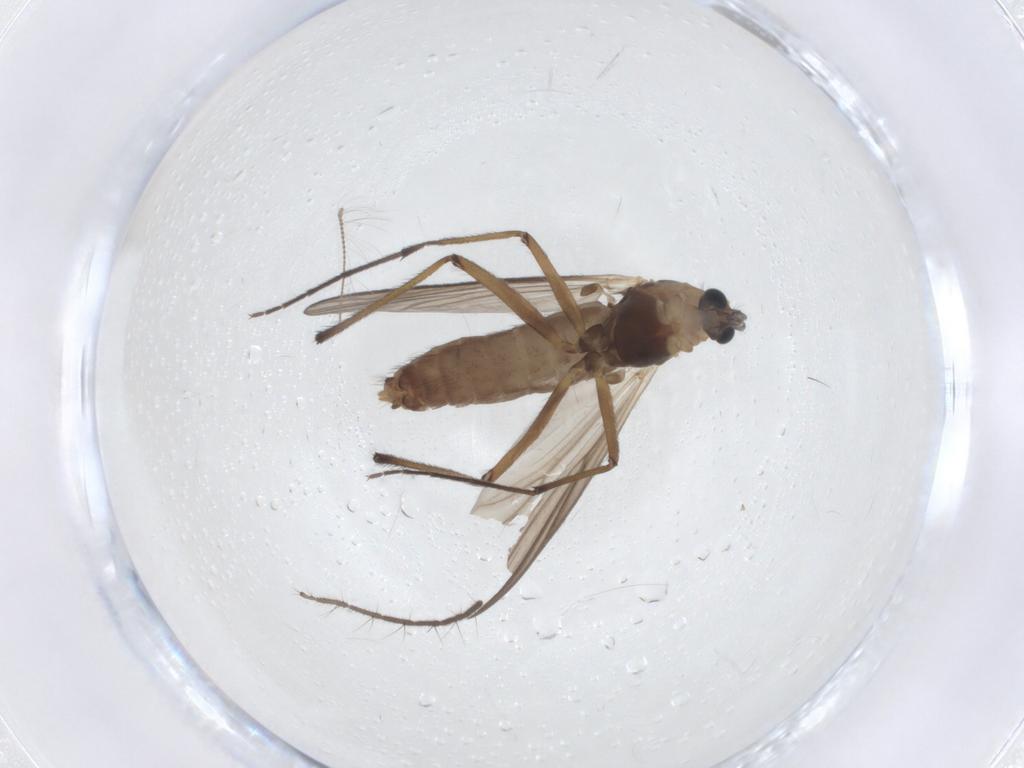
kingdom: Animalia
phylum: Arthropoda
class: Insecta
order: Diptera
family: Chironomidae
